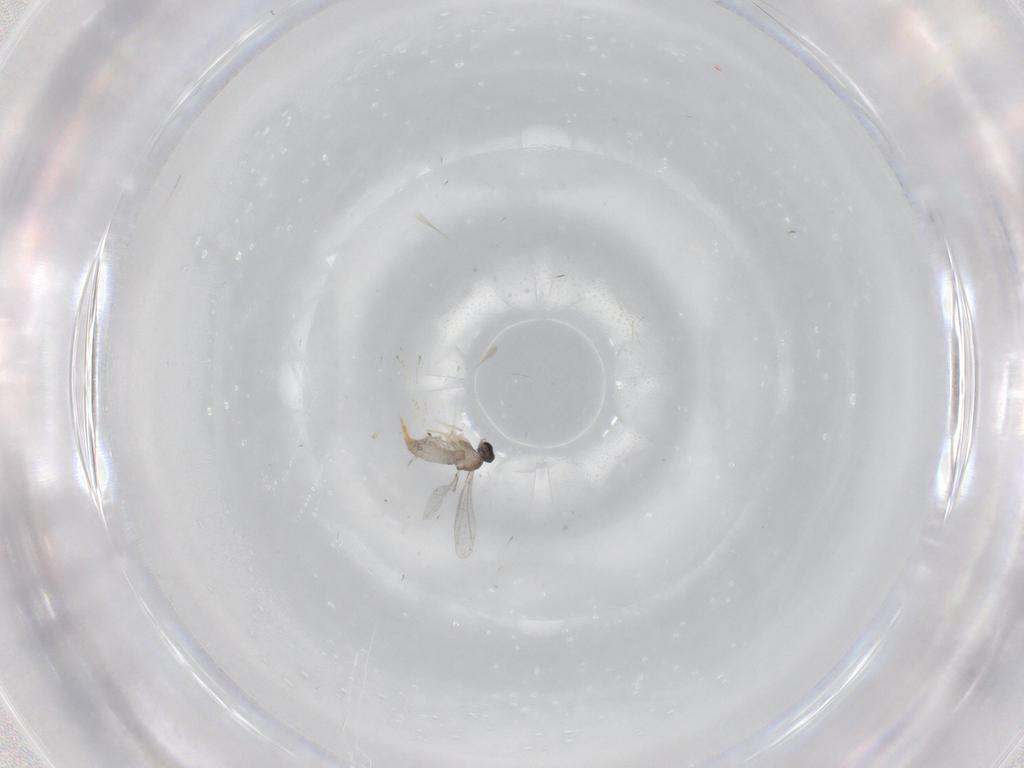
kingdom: Animalia
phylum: Arthropoda
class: Insecta
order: Diptera
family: Cecidomyiidae
